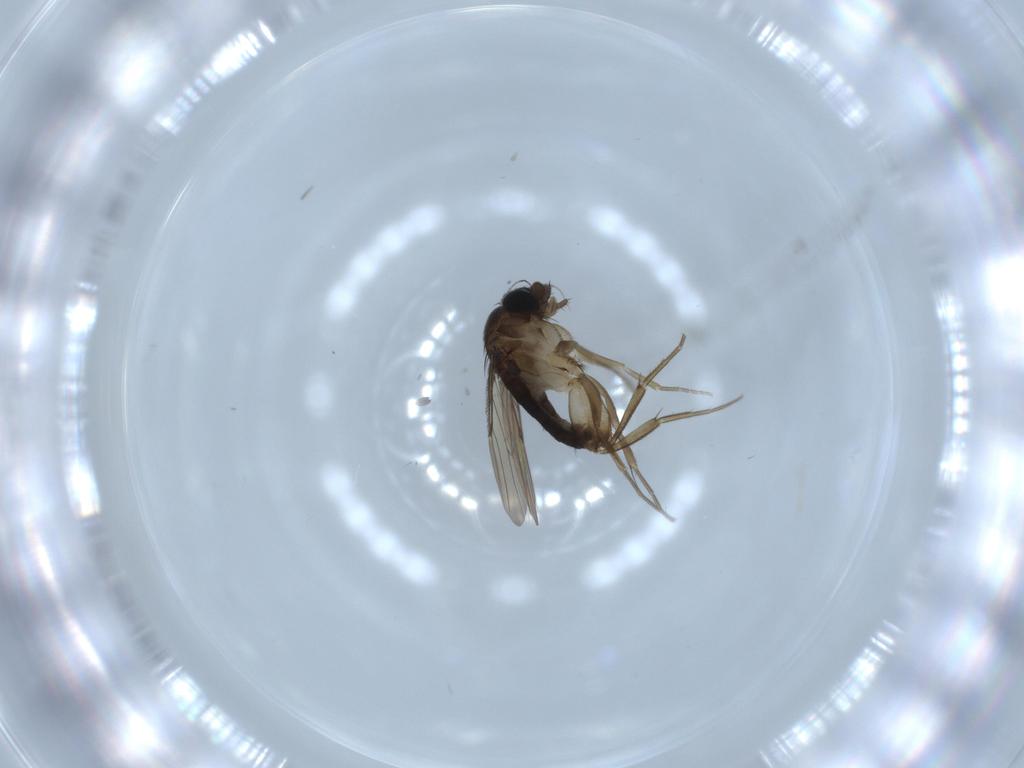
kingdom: Animalia
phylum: Arthropoda
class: Insecta
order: Diptera
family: Phoridae
